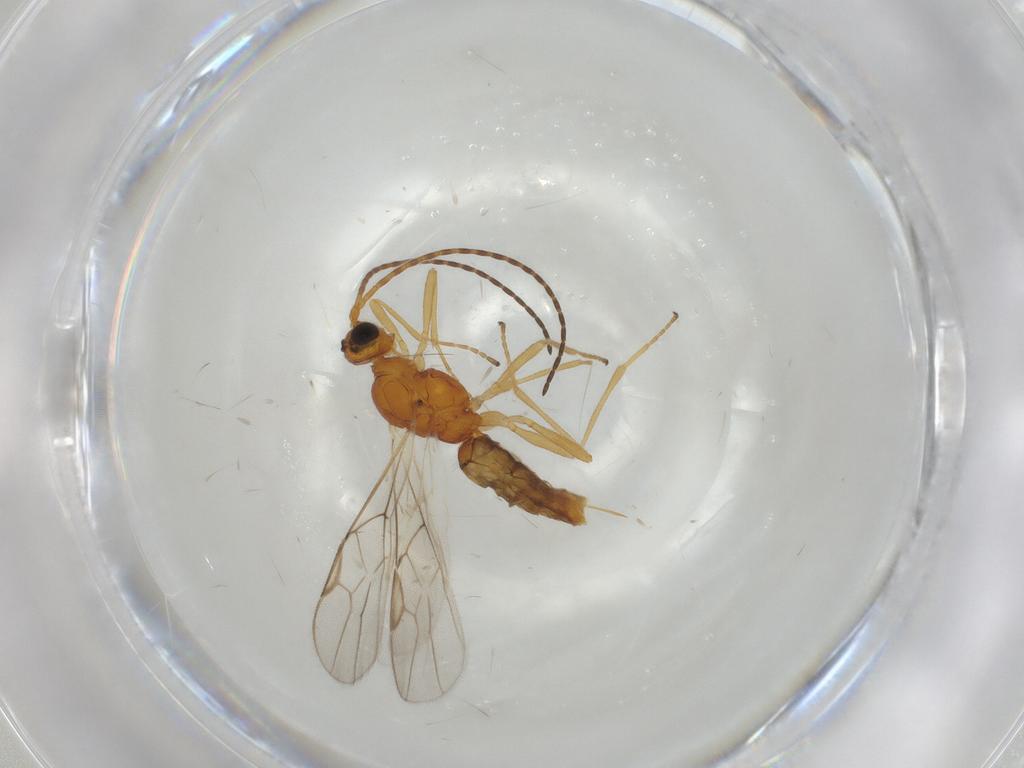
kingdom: Animalia
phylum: Arthropoda
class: Insecta
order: Hymenoptera
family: Braconidae
